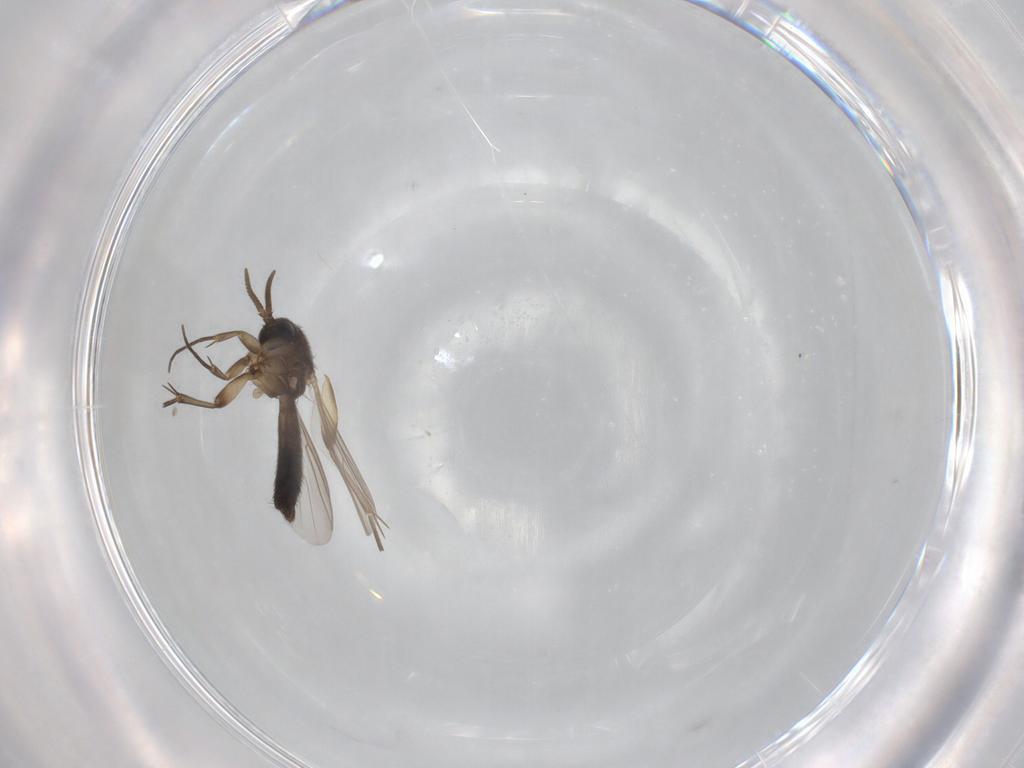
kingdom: Animalia
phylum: Arthropoda
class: Insecta
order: Diptera
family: Mycetophilidae
